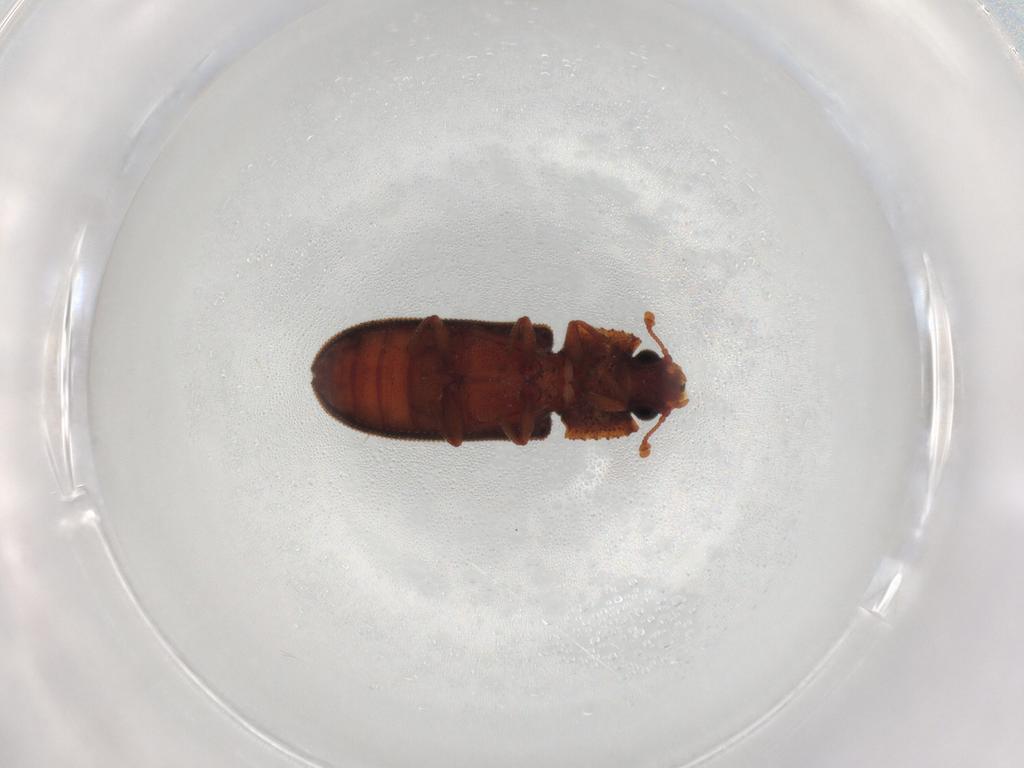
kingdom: Animalia
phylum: Arthropoda
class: Insecta
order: Coleoptera
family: Zopheridae
